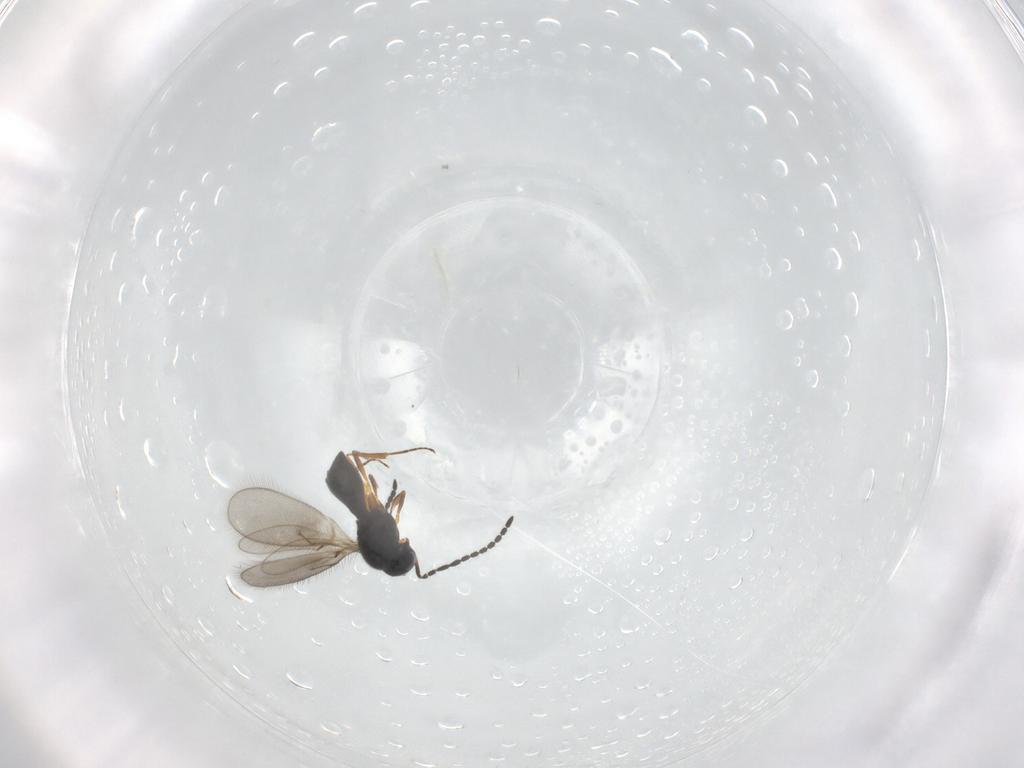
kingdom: Animalia
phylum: Arthropoda
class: Insecta
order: Hymenoptera
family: Scelionidae
